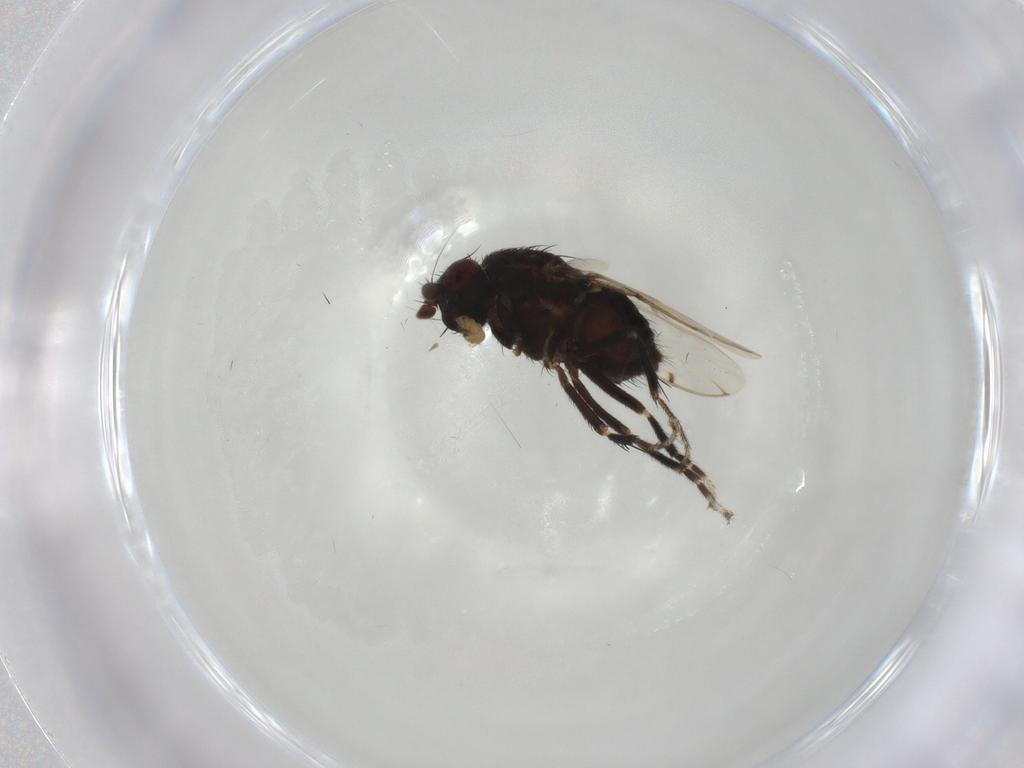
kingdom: Animalia
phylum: Arthropoda
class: Insecta
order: Diptera
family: Sphaeroceridae
